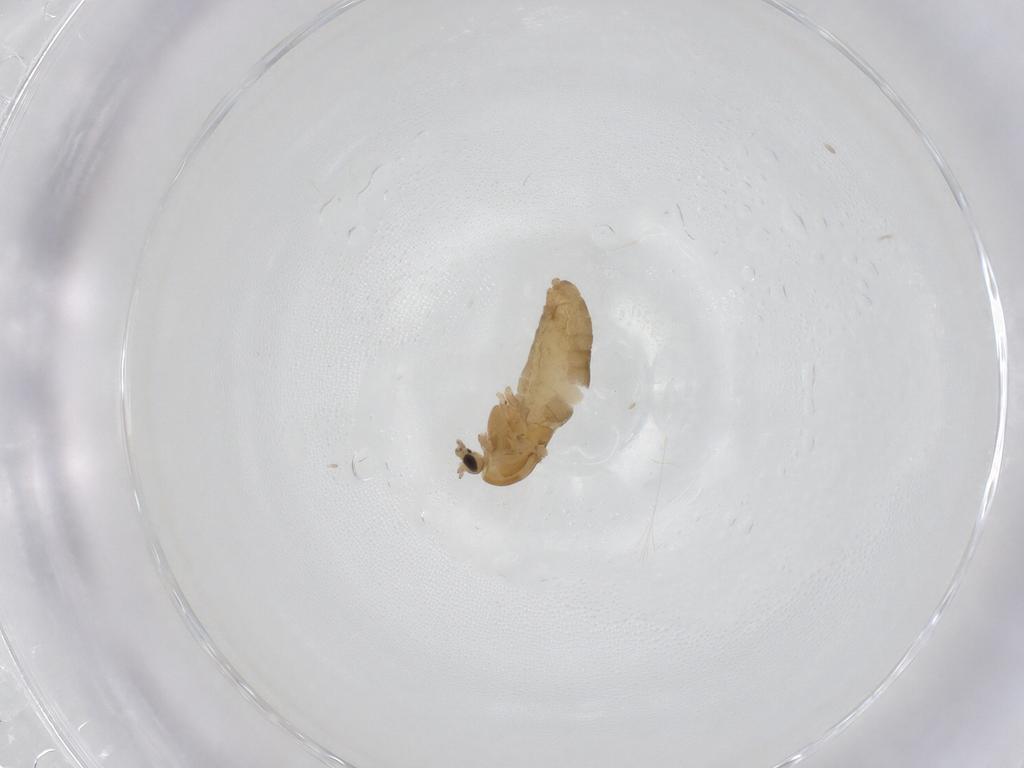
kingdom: Animalia
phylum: Arthropoda
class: Insecta
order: Diptera
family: Chironomidae
